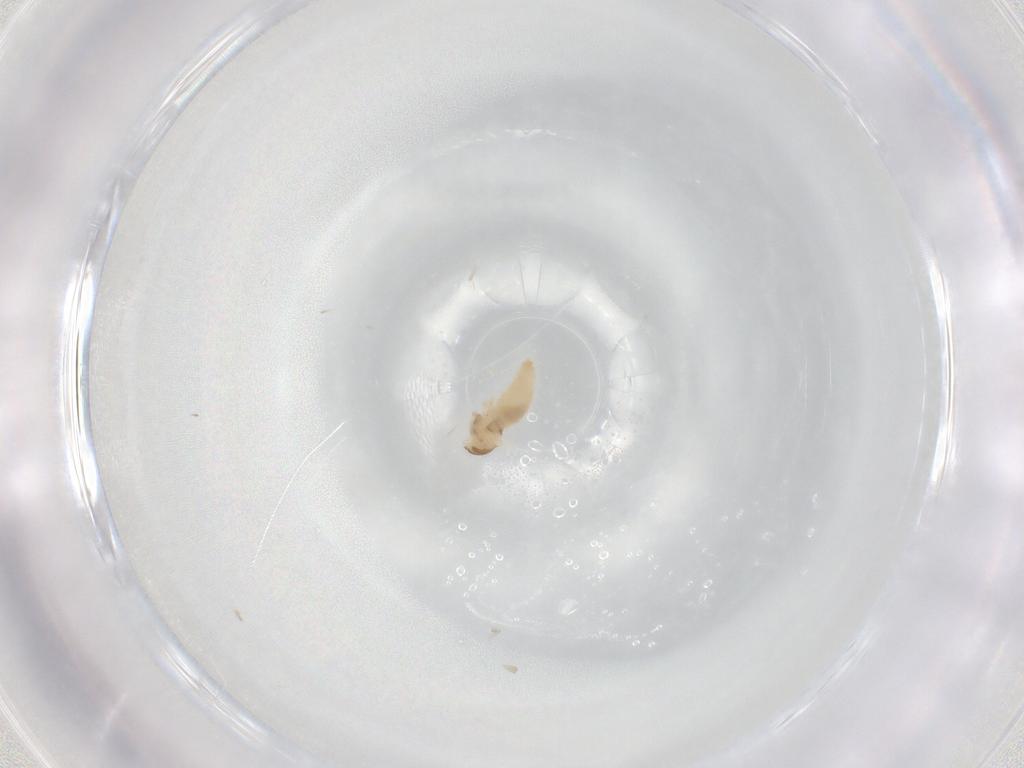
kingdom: Animalia
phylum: Arthropoda
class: Insecta
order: Diptera
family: Cecidomyiidae
